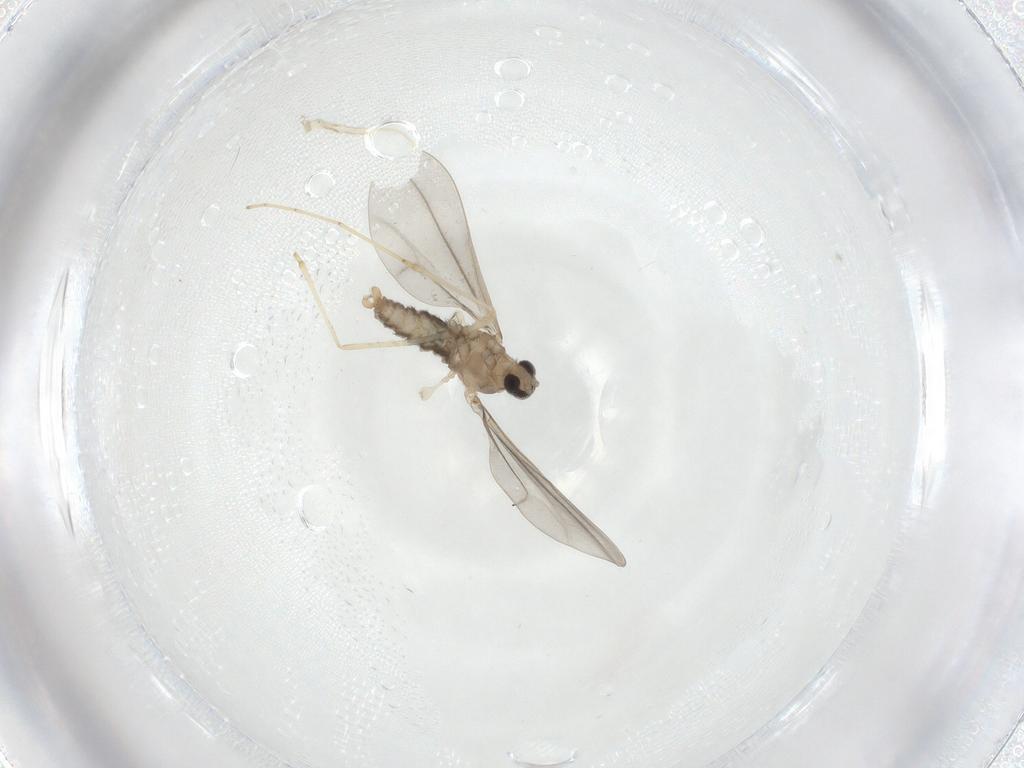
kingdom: Animalia
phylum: Arthropoda
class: Insecta
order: Diptera
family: Cecidomyiidae
